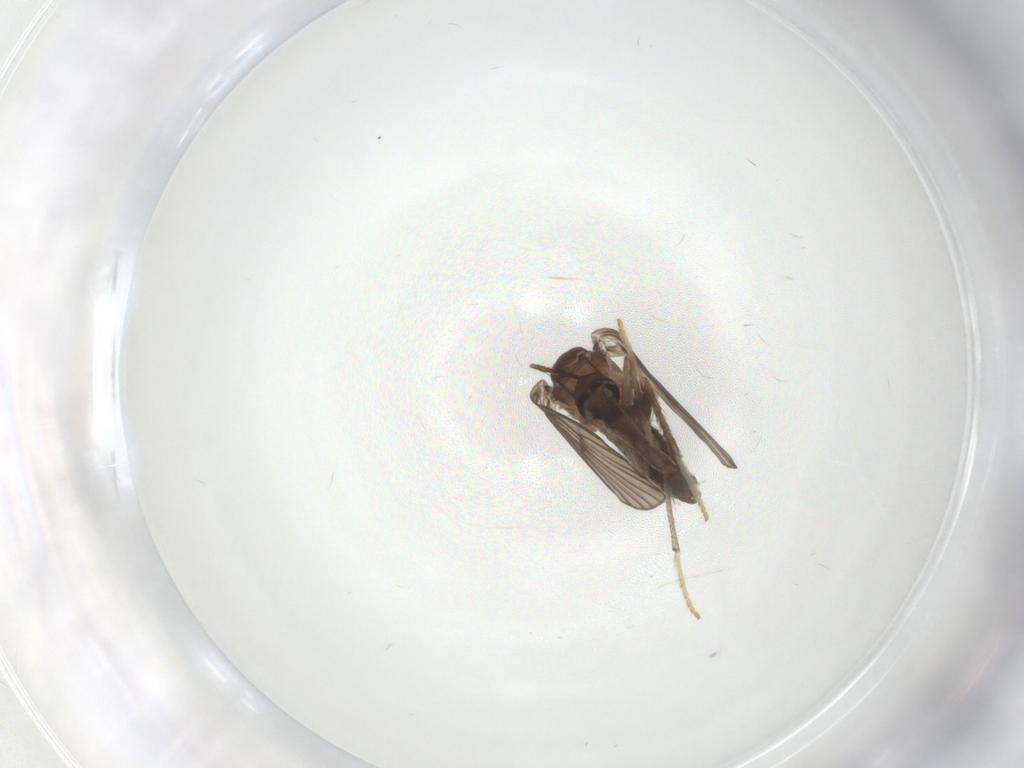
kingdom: Animalia
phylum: Arthropoda
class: Insecta
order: Diptera
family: Psychodidae
